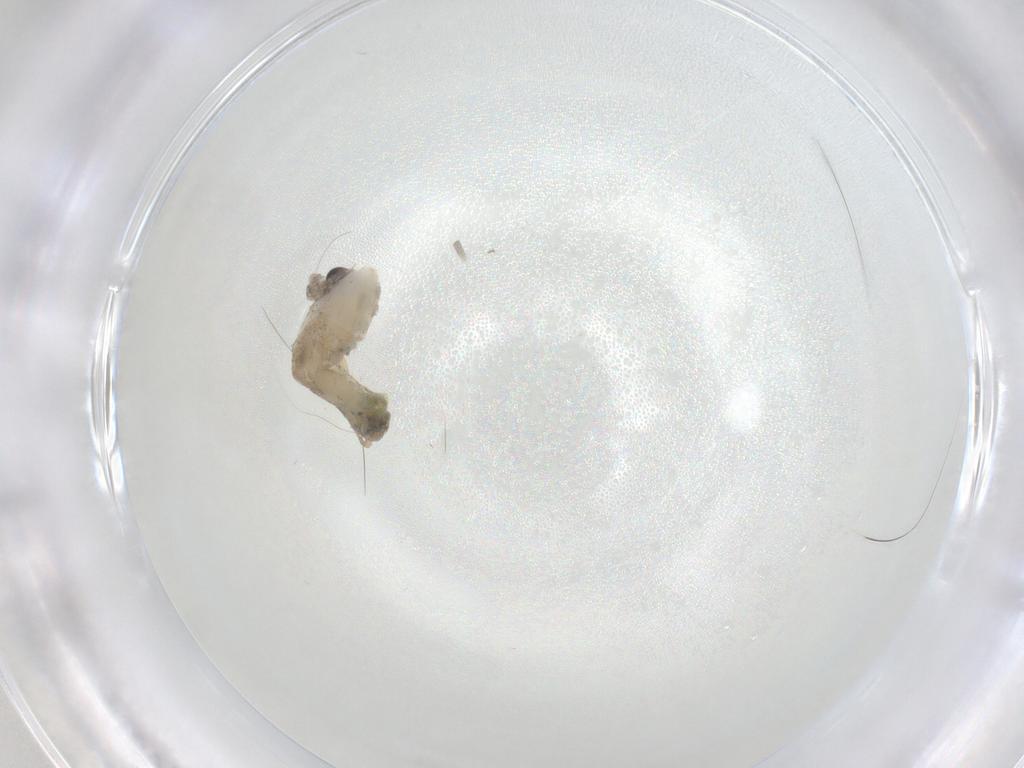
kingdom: Animalia
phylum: Arthropoda
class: Insecta
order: Diptera
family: Chironomidae
